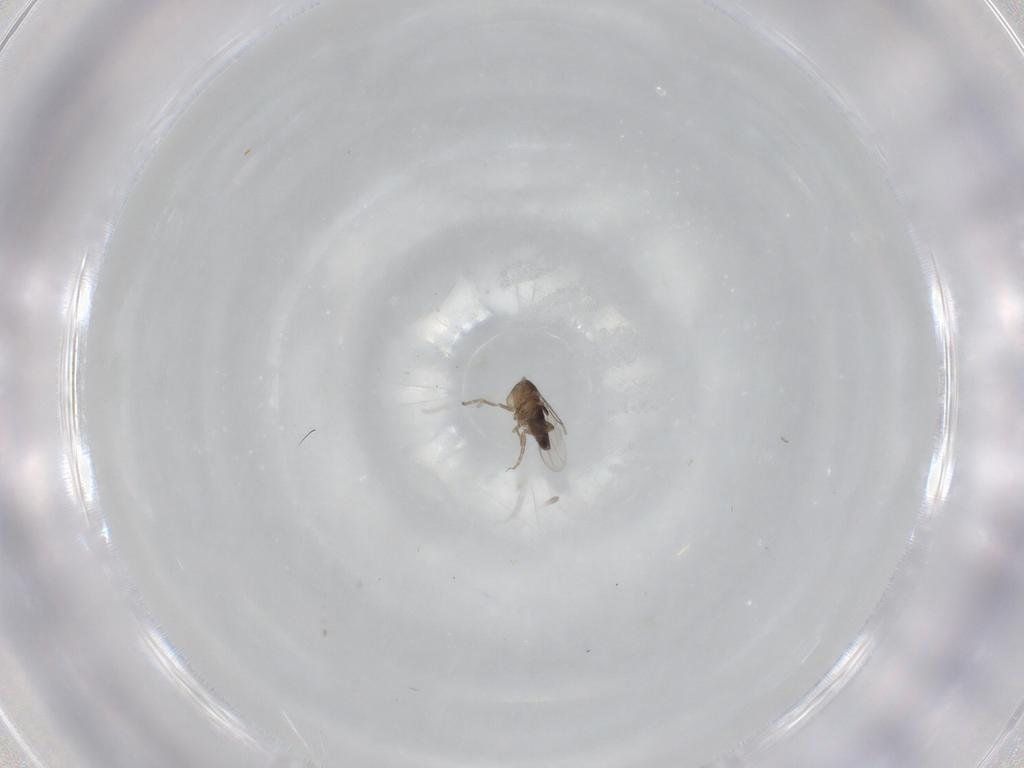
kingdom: Animalia
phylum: Arthropoda
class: Insecta
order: Diptera
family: Phoridae
